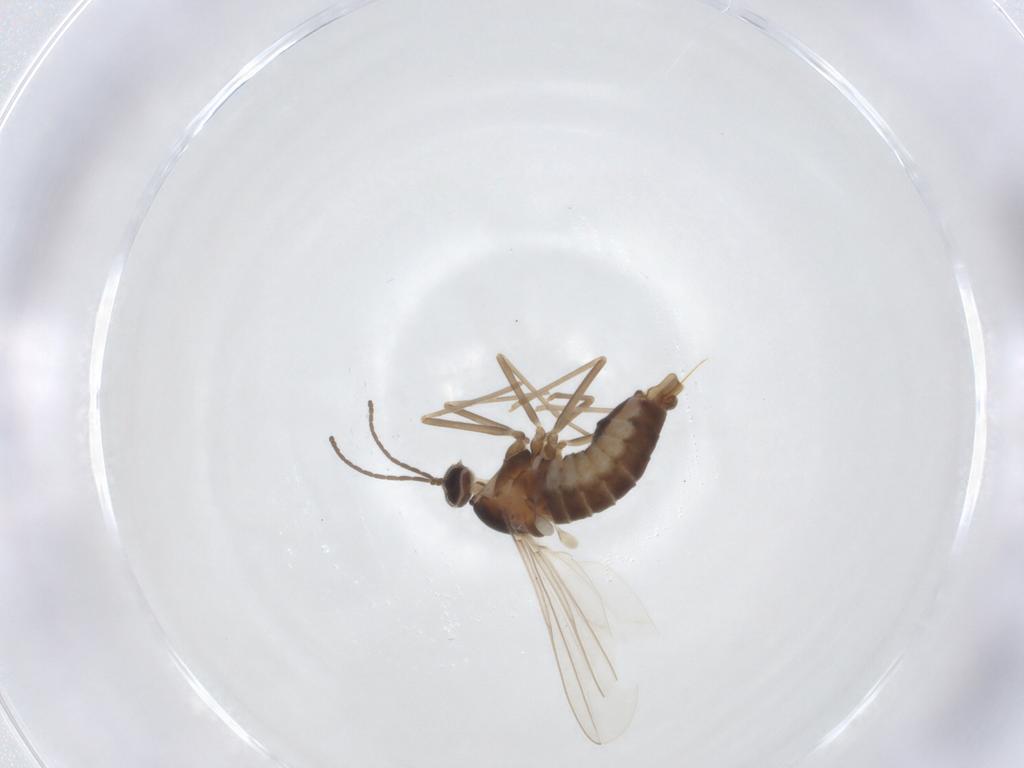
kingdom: Animalia
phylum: Arthropoda
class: Insecta
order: Diptera
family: Cecidomyiidae
